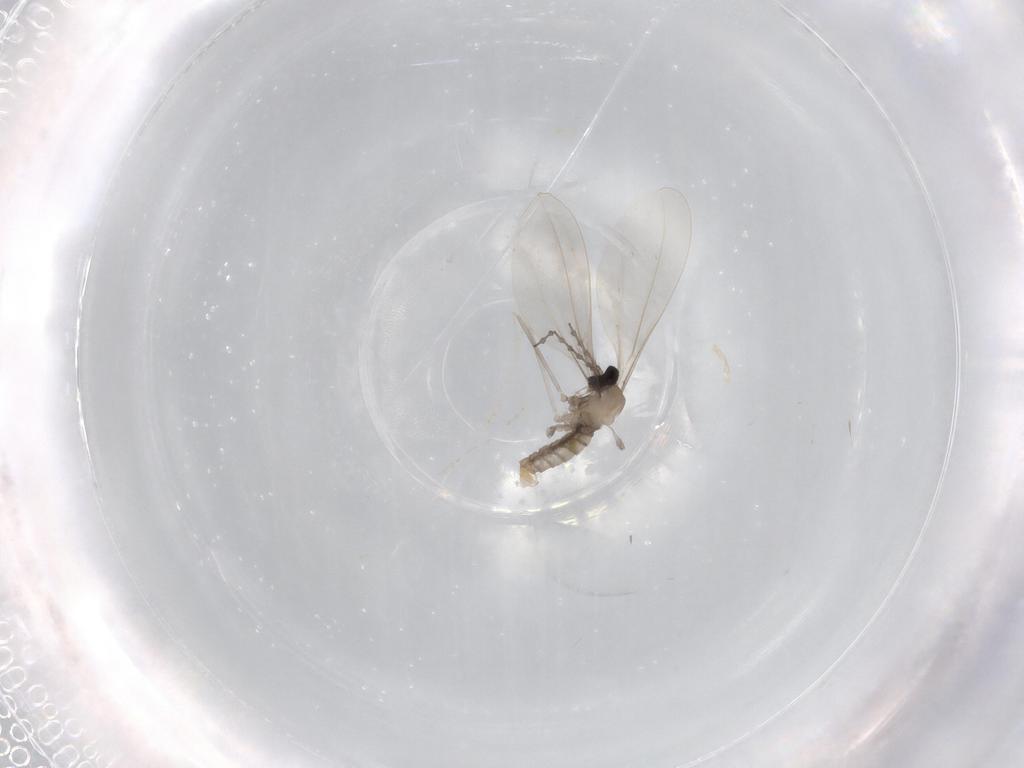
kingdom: Animalia
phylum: Arthropoda
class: Insecta
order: Diptera
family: Cecidomyiidae
